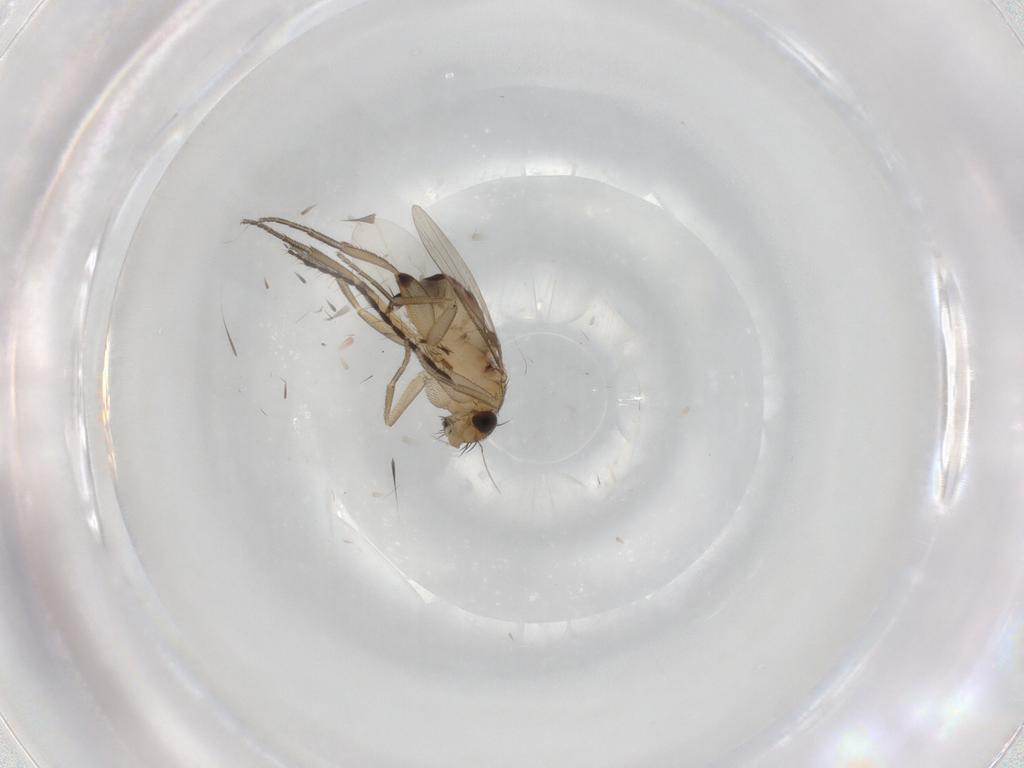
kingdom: Animalia
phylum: Arthropoda
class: Insecta
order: Diptera
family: Phoridae
